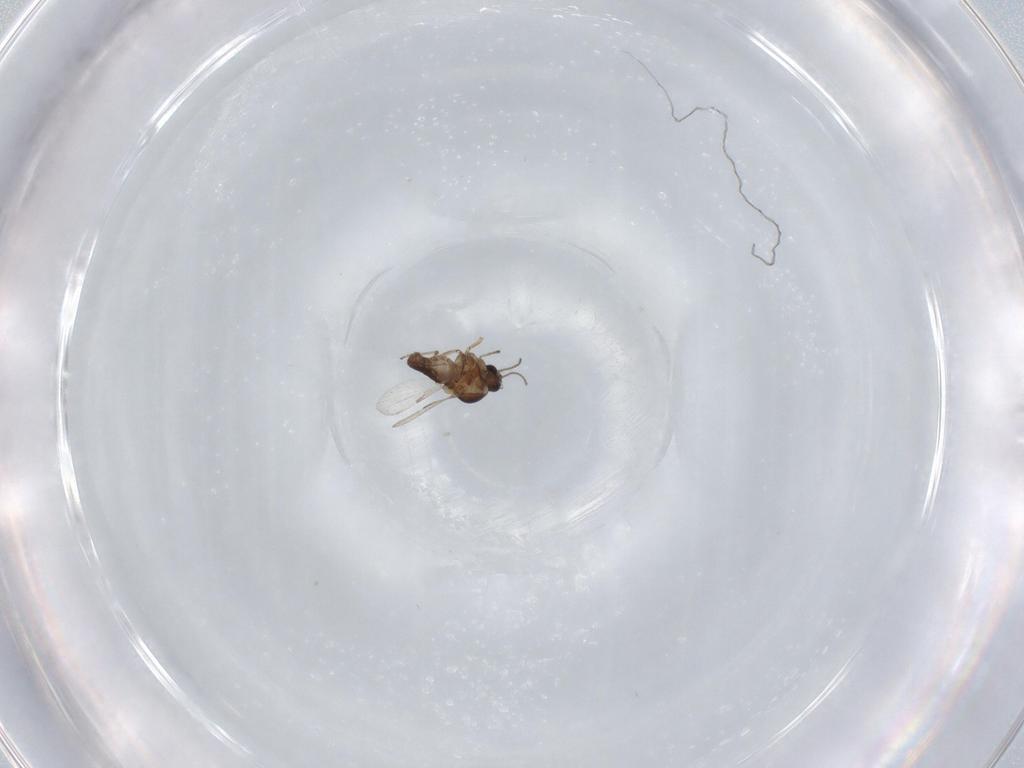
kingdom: Animalia
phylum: Arthropoda
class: Insecta
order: Diptera
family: Ceratopogonidae
